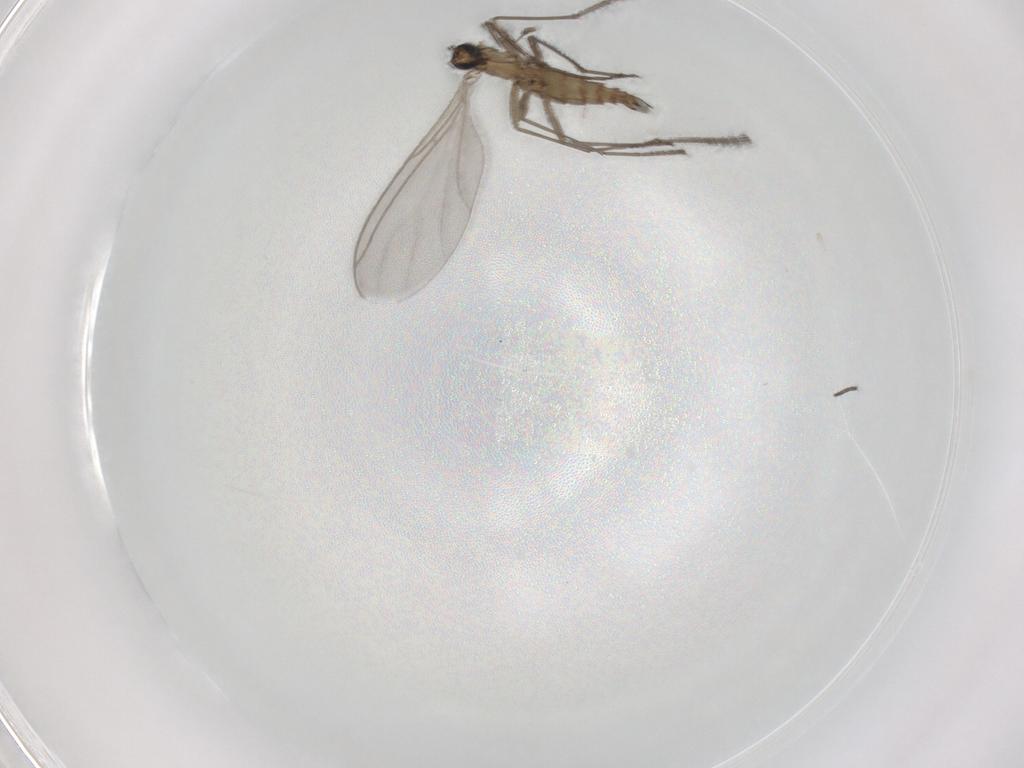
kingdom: Animalia
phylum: Arthropoda
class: Insecta
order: Diptera
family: Sciaridae
